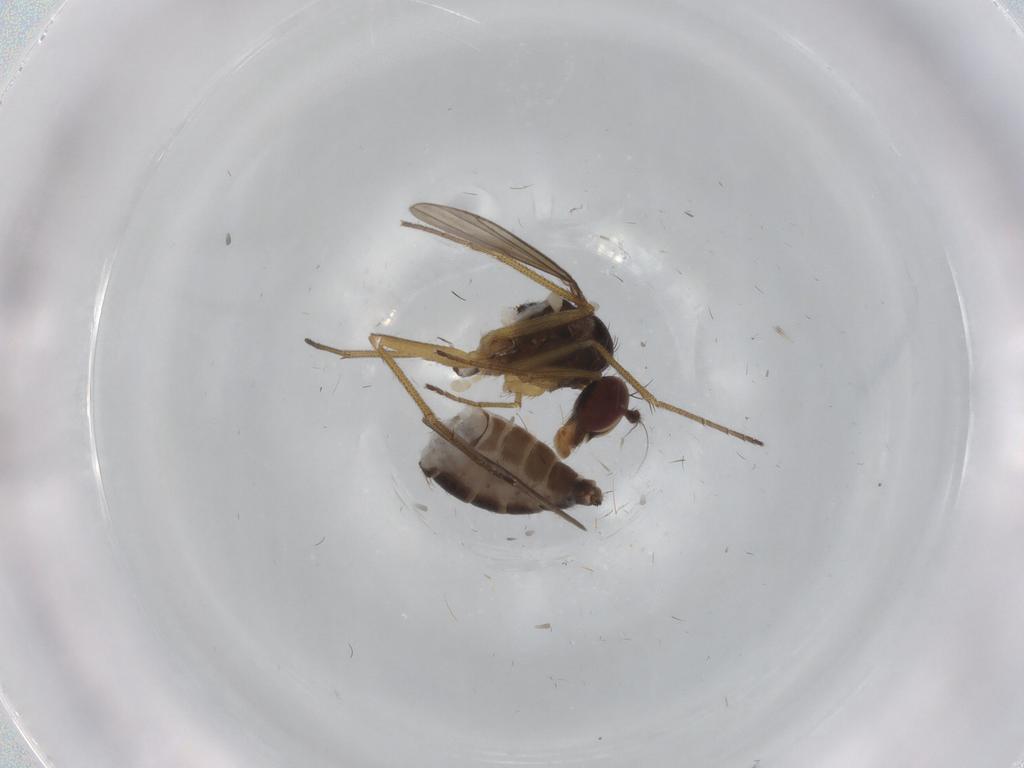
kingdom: Animalia
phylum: Arthropoda
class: Insecta
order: Diptera
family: Dolichopodidae
